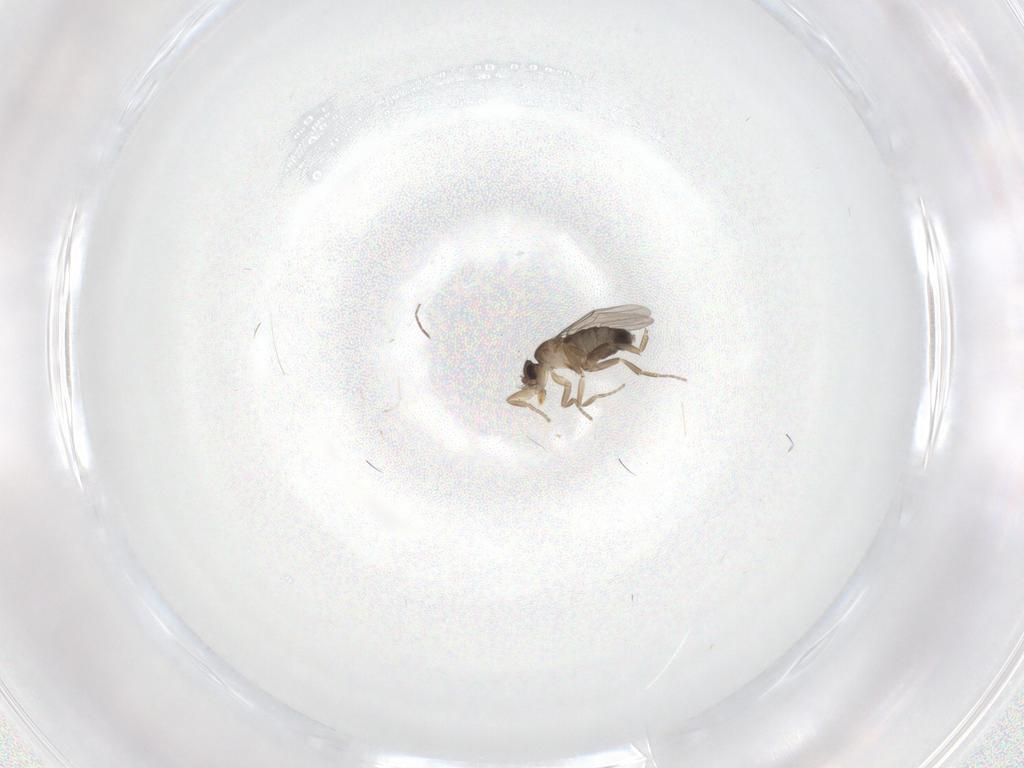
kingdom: Animalia
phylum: Arthropoda
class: Insecta
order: Diptera
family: Cecidomyiidae
